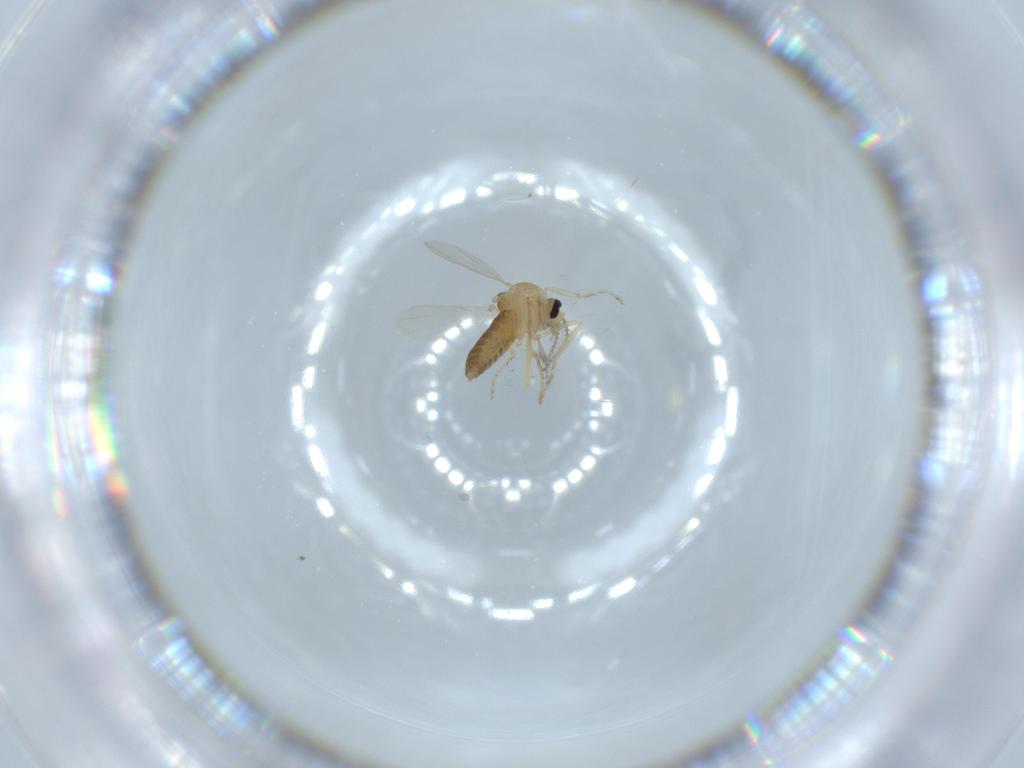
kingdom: Animalia
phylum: Arthropoda
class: Insecta
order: Diptera
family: Ceratopogonidae
